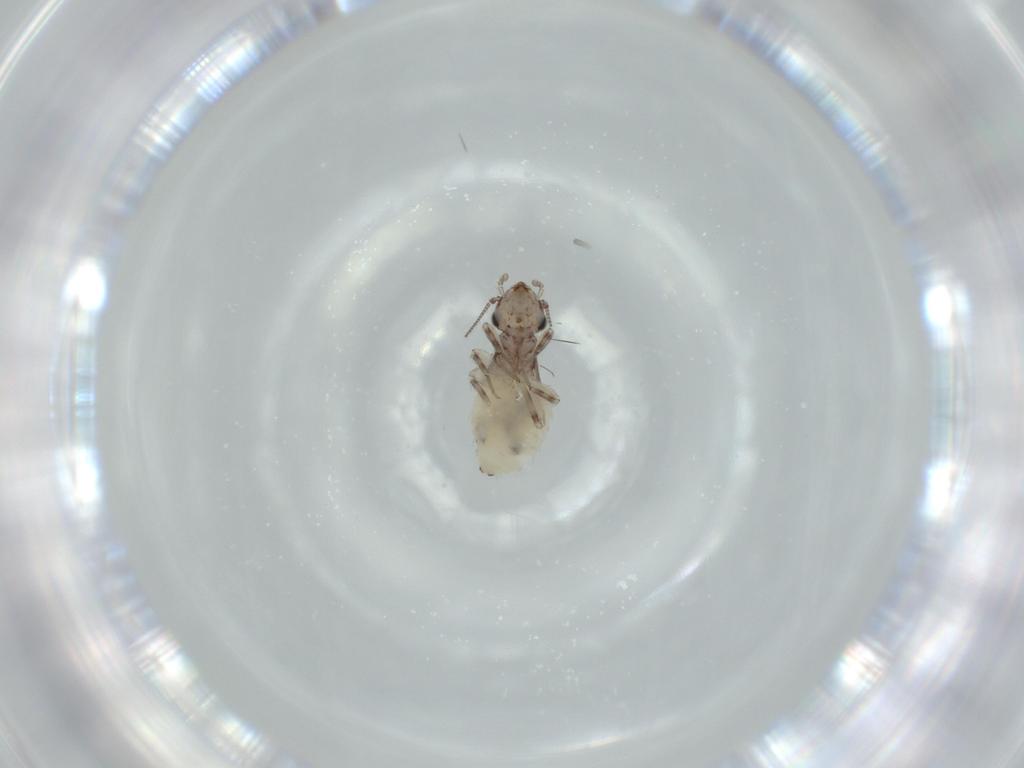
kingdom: Animalia
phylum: Arthropoda
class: Insecta
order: Psocodea
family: Lepidopsocidae
